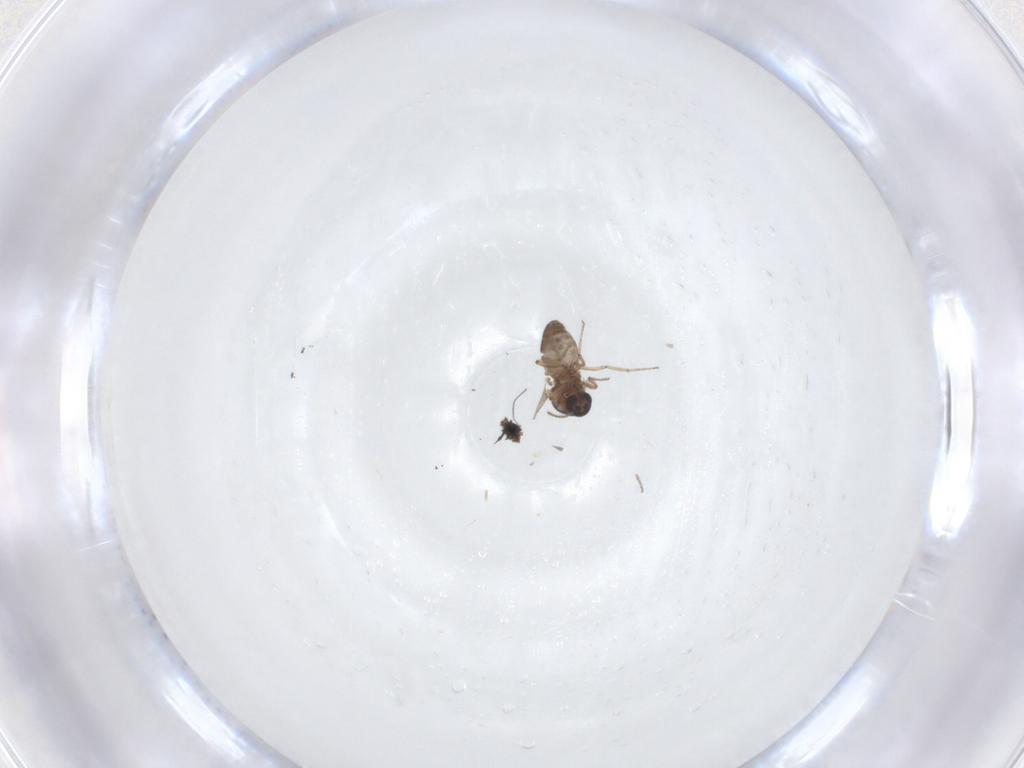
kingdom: Animalia
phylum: Arthropoda
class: Insecta
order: Diptera
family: Ceratopogonidae
